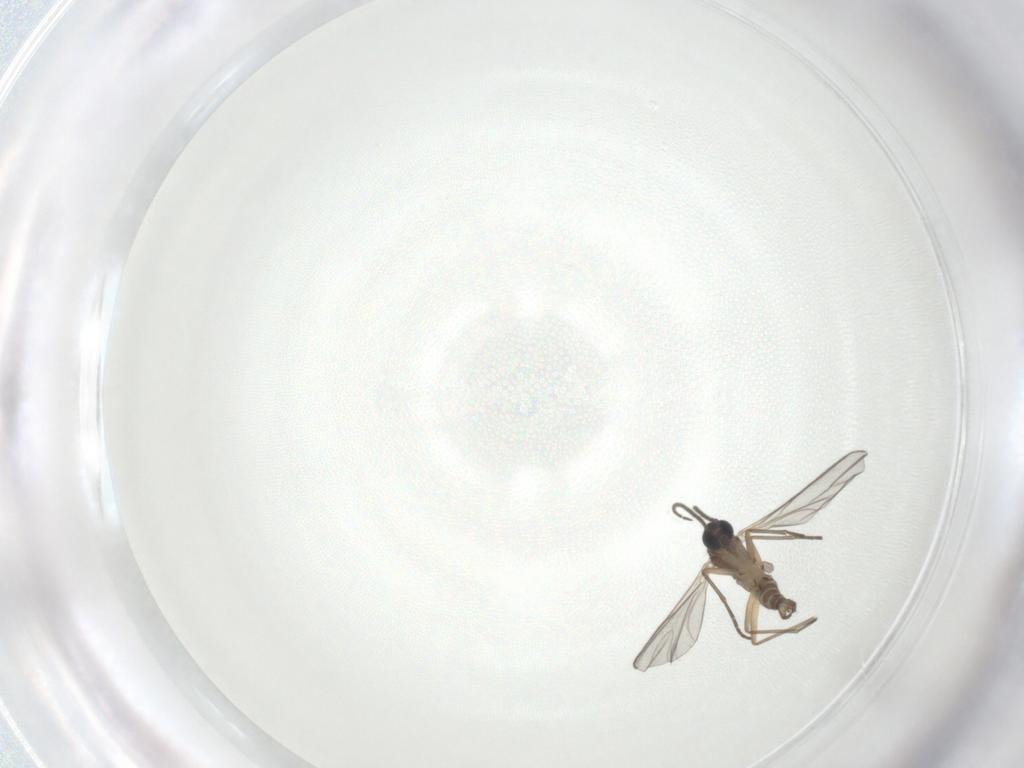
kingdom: Animalia
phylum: Arthropoda
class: Insecta
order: Diptera
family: Sciaridae
